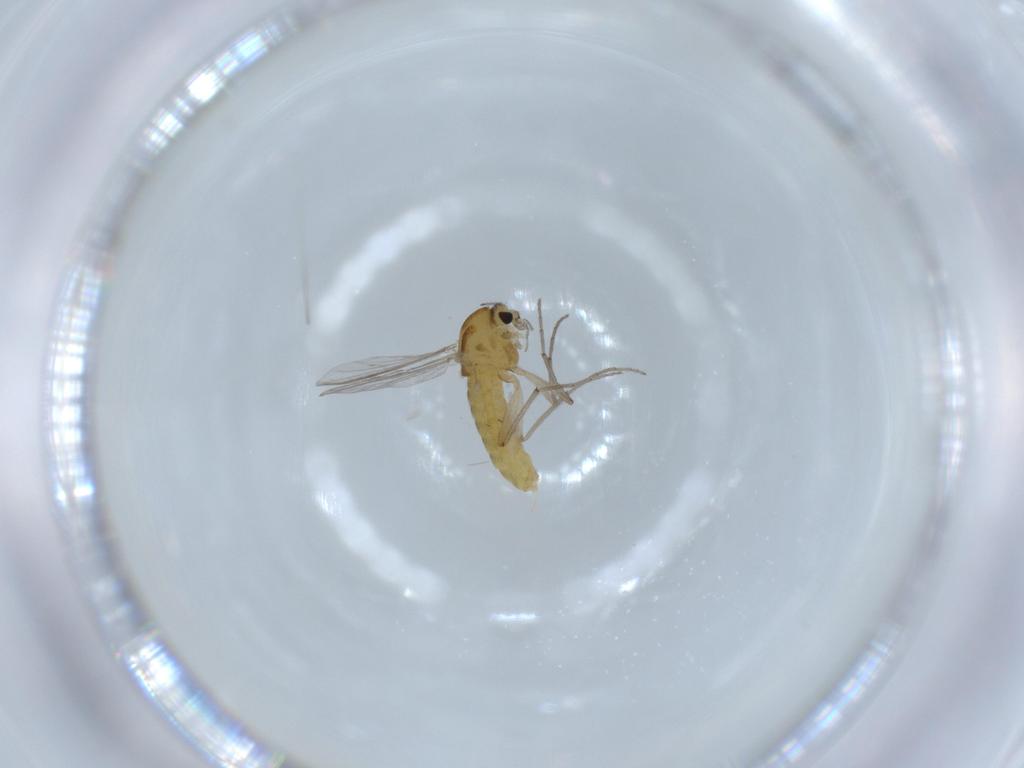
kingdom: Animalia
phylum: Arthropoda
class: Insecta
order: Diptera
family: Chironomidae
